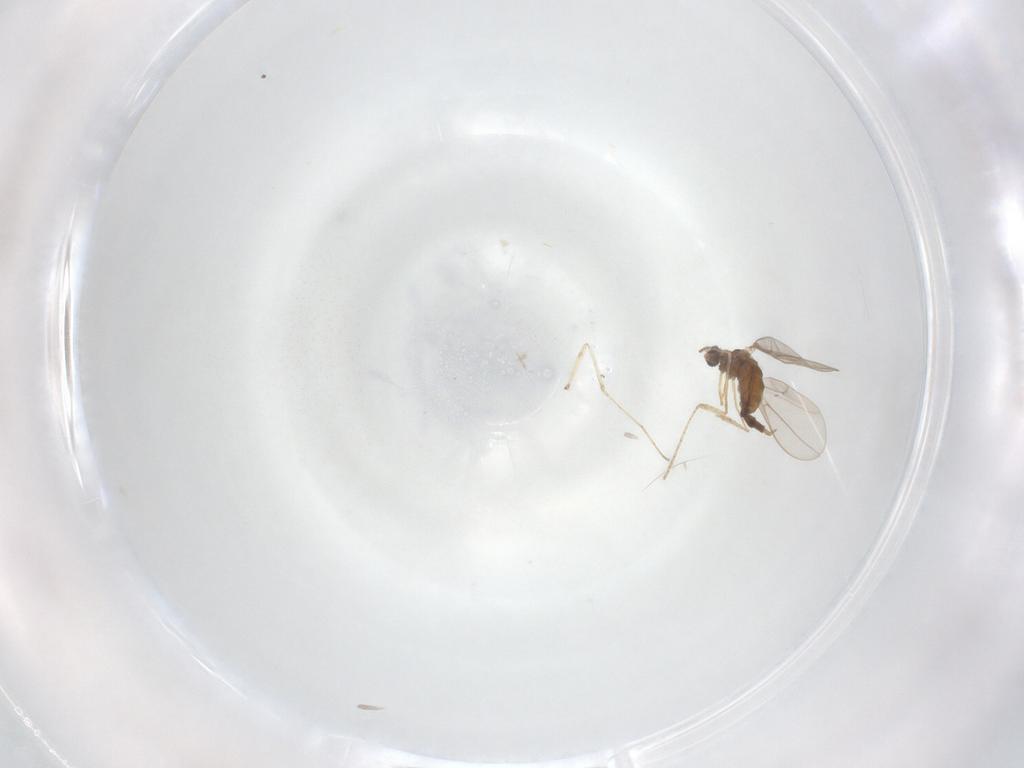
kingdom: Animalia
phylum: Arthropoda
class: Insecta
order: Diptera
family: Cecidomyiidae
